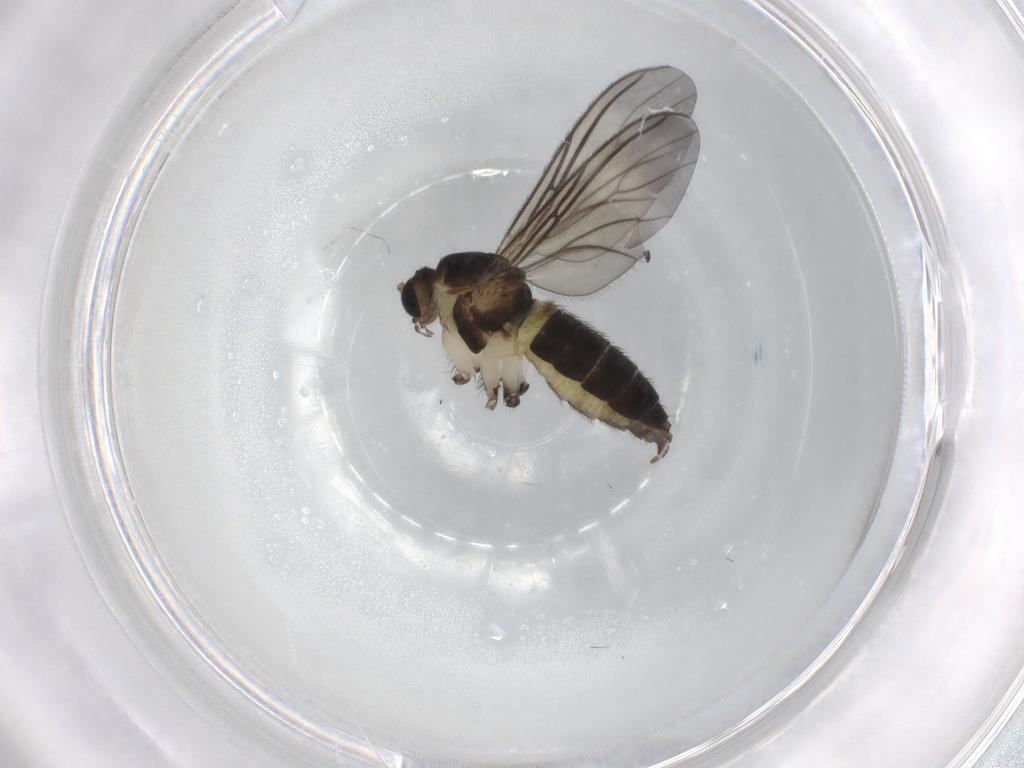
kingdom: Animalia
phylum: Arthropoda
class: Insecta
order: Diptera
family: Sciaridae
